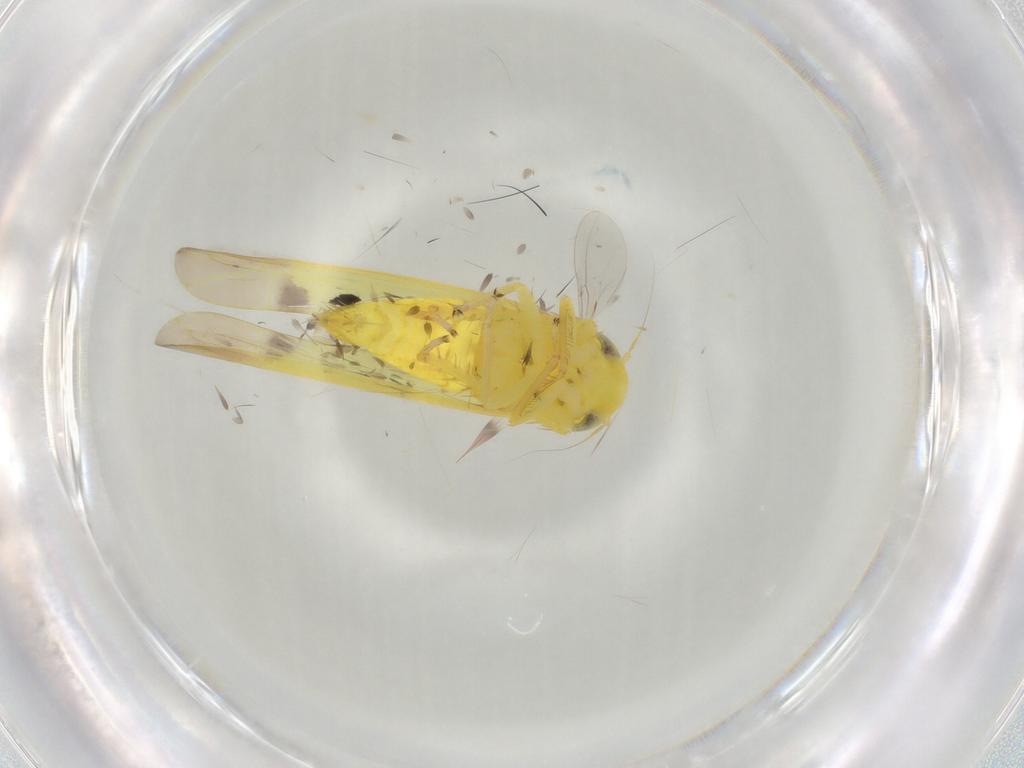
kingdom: Animalia
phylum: Arthropoda
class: Insecta
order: Hemiptera
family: Cicadellidae
